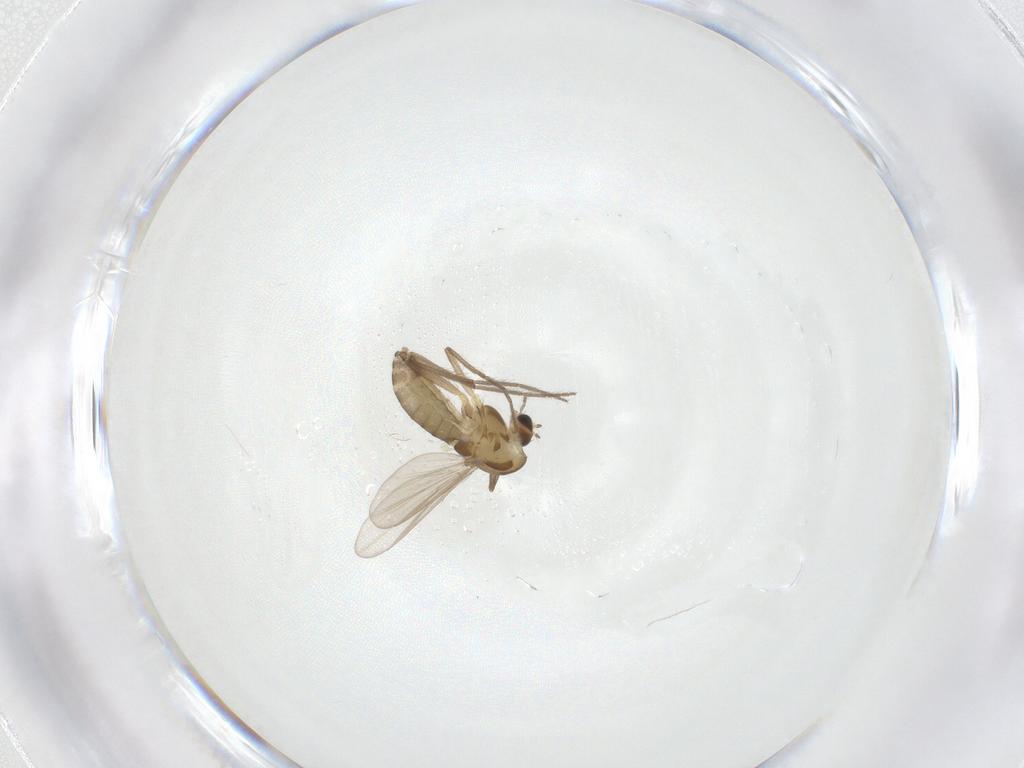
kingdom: Animalia
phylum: Arthropoda
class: Insecta
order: Diptera
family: Chironomidae
